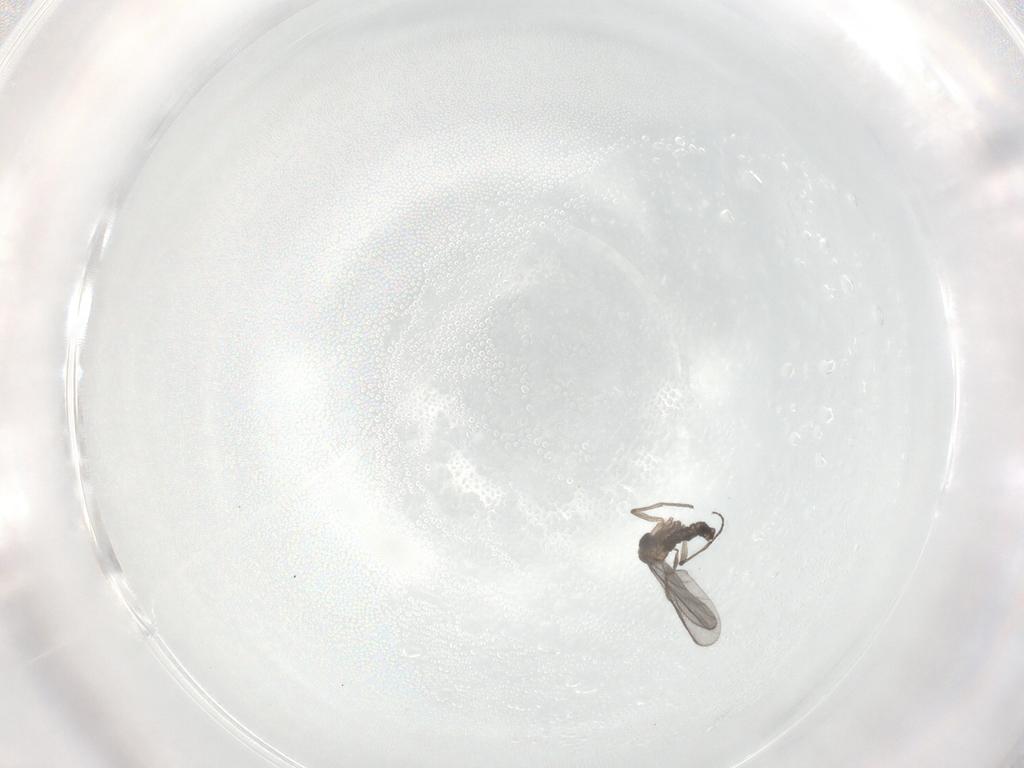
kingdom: Animalia
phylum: Arthropoda
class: Insecta
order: Diptera
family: Sciaridae
